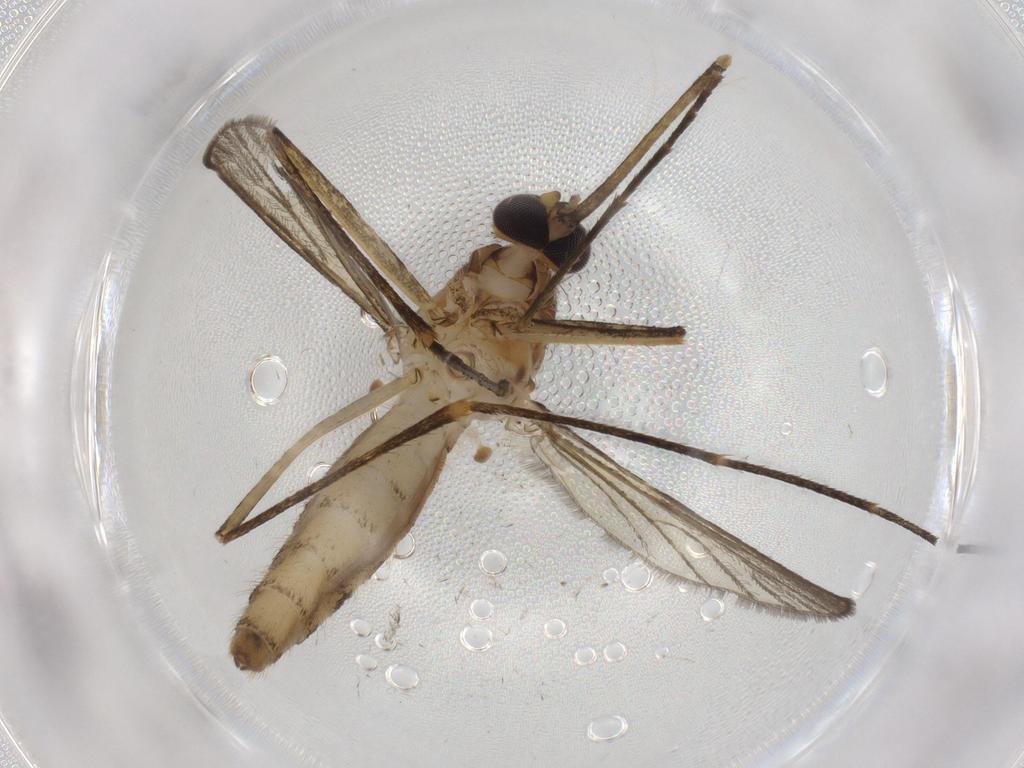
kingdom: Animalia
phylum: Arthropoda
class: Insecta
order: Diptera
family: Culicidae
